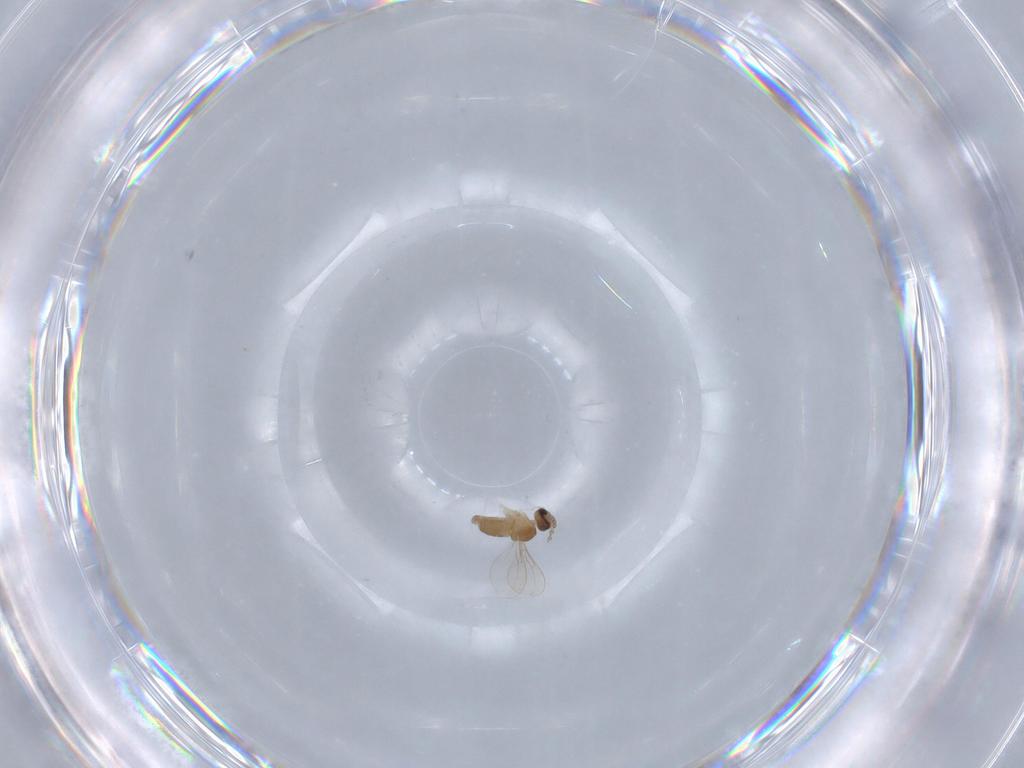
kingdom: Animalia
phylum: Arthropoda
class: Insecta
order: Diptera
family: Cecidomyiidae
